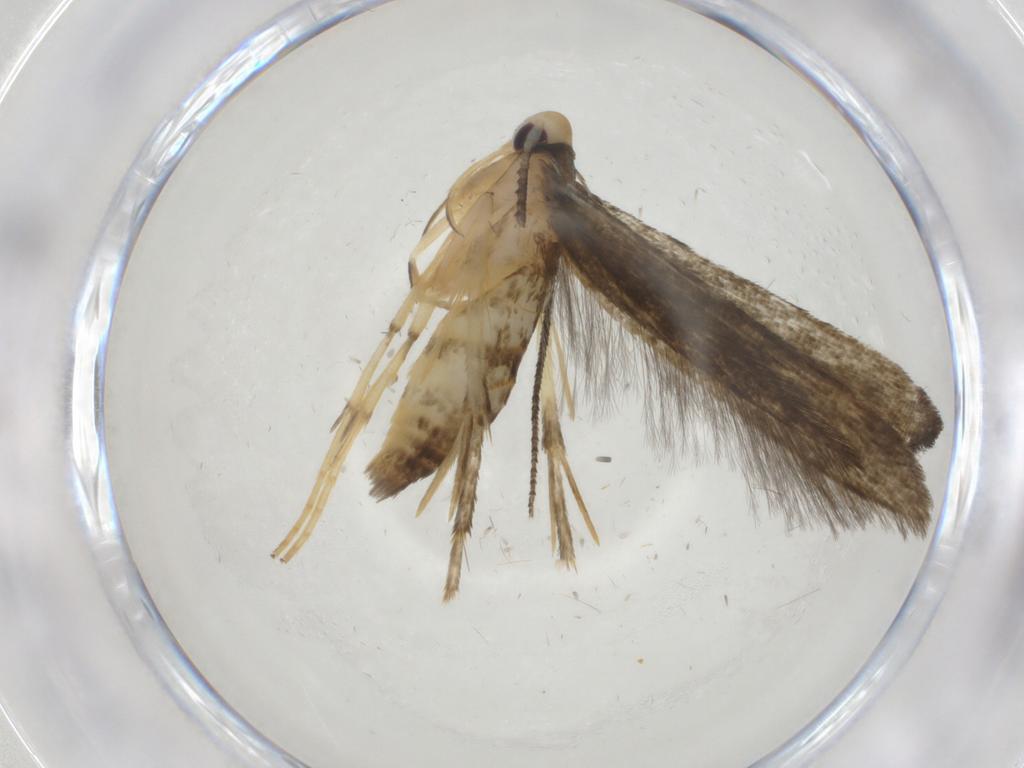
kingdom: Animalia
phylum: Arthropoda
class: Insecta
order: Lepidoptera
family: Stathmopodidae
